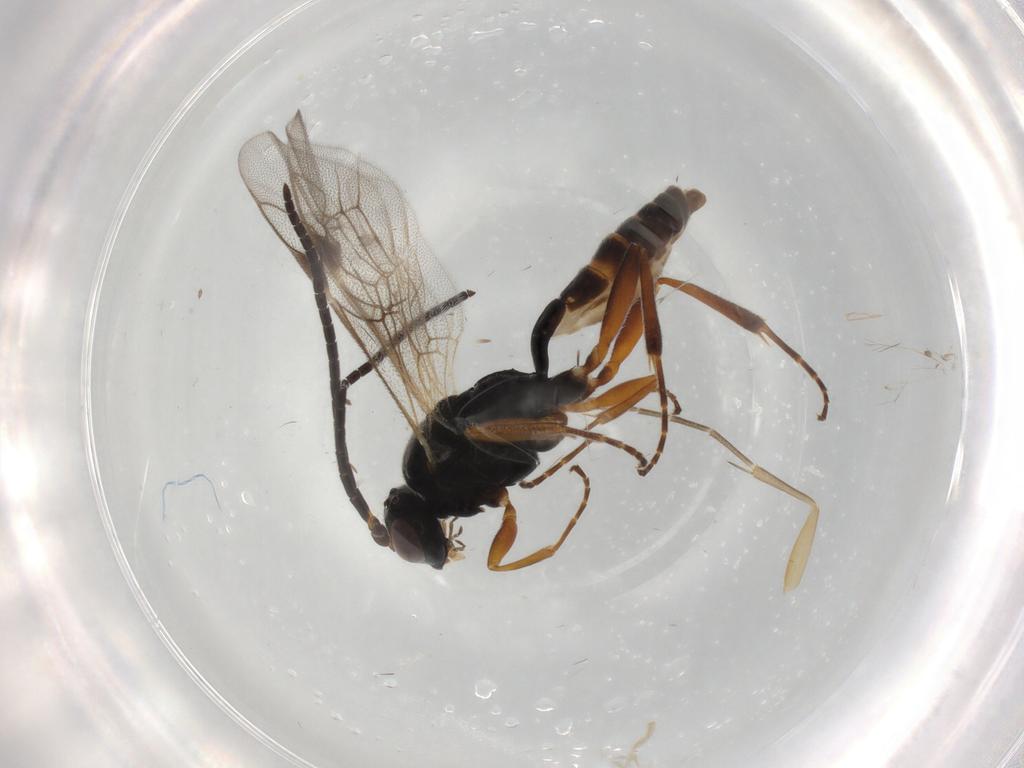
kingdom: Animalia
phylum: Arthropoda
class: Insecta
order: Hymenoptera
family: Ichneumonidae
